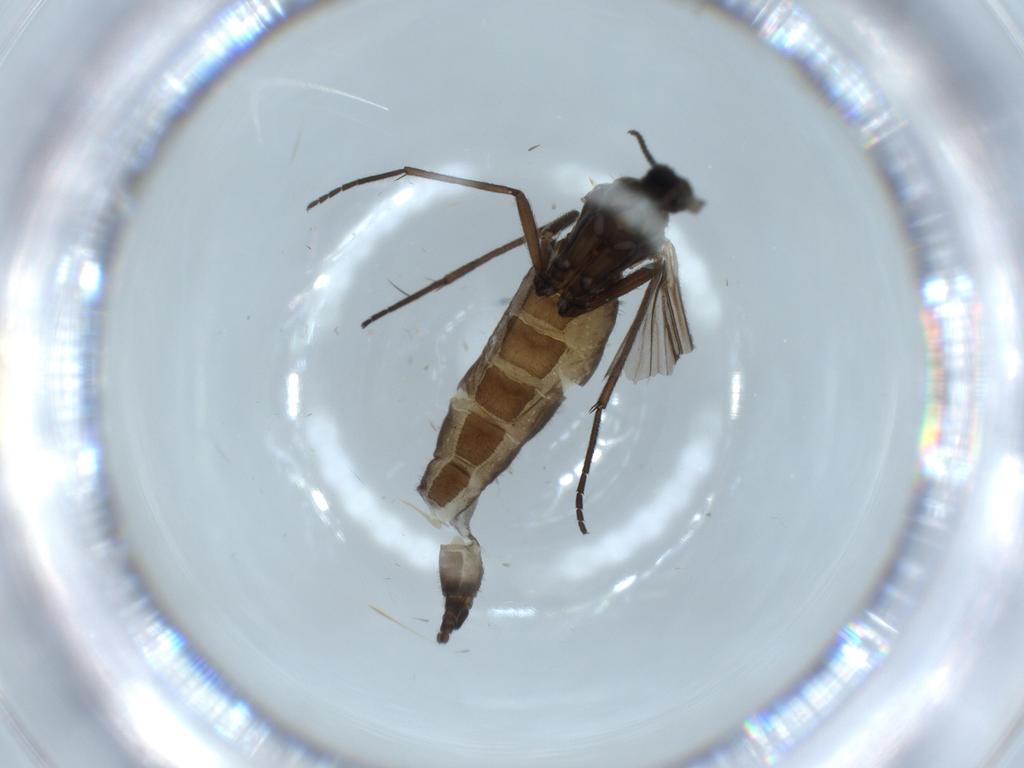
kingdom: Animalia
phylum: Arthropoda
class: Insecta
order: Diptera
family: Sciaridae
